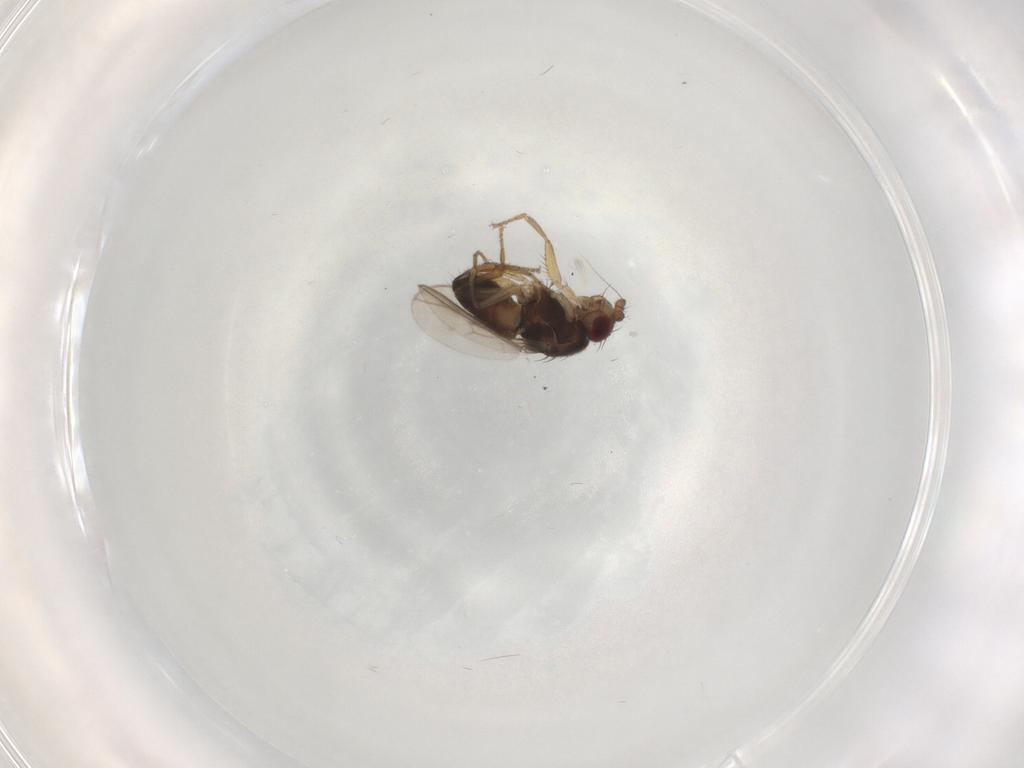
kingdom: Animalia
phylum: Arthropoda
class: Insecta
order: Diptera
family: Sphaeroceridae
